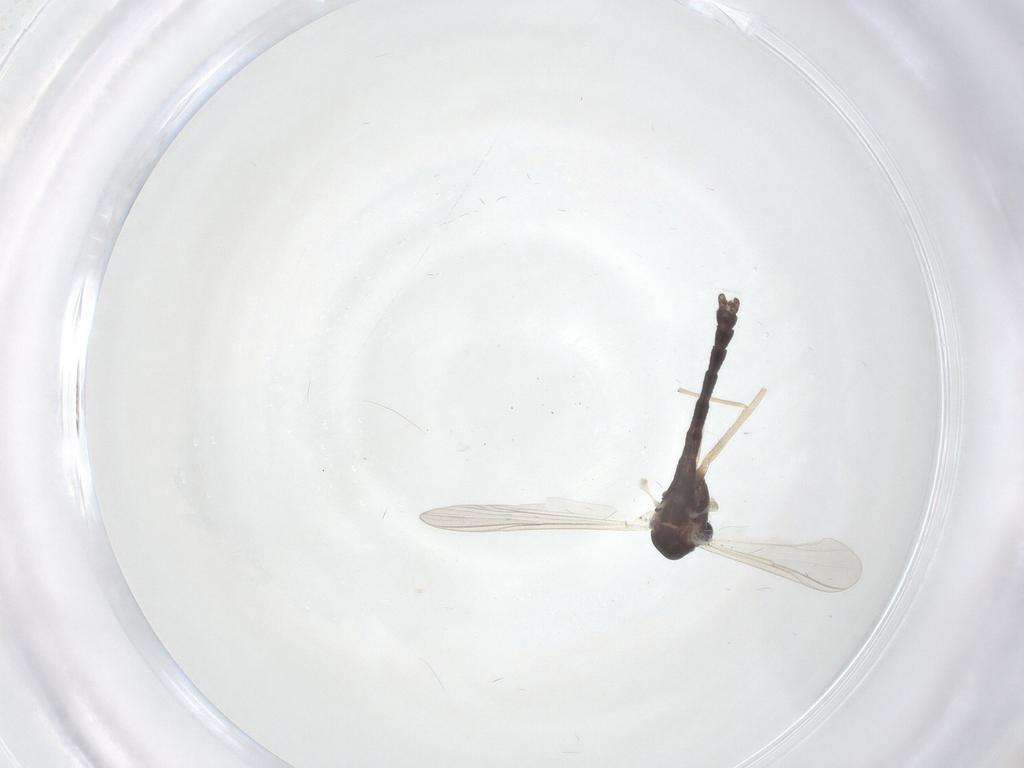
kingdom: Animalia
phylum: Arthropoda
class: Insecta
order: Diptera
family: Chironomidae
